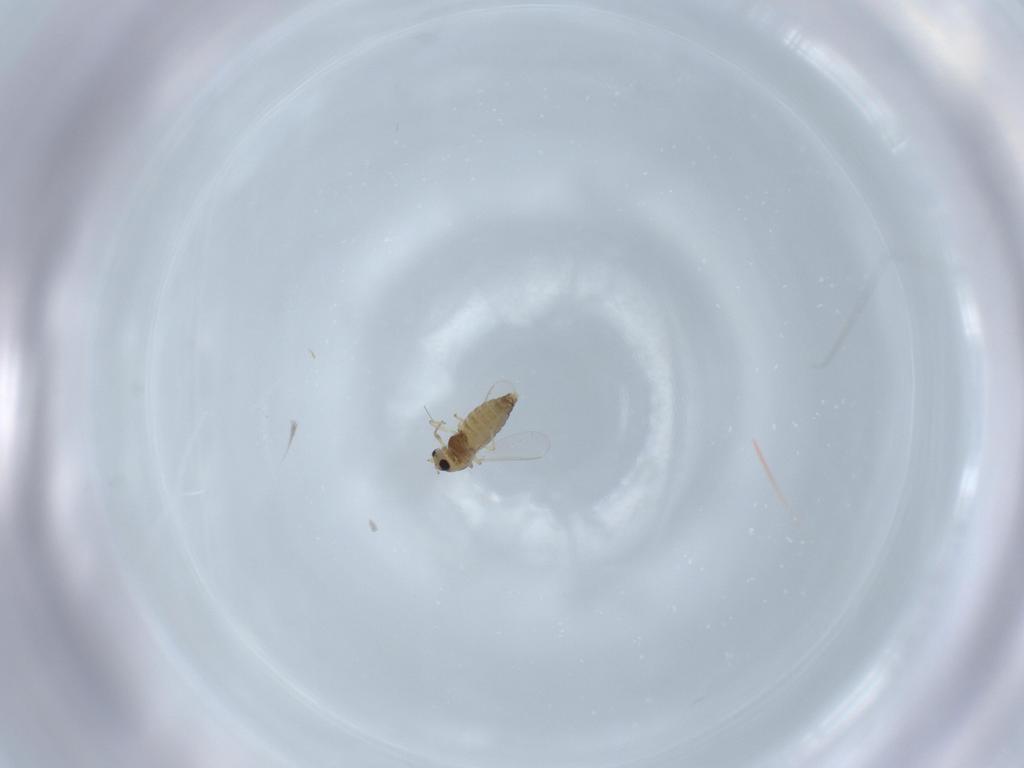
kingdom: Animalia
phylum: Arthropoda
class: Insecta
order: Diptera
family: Chironomidae
